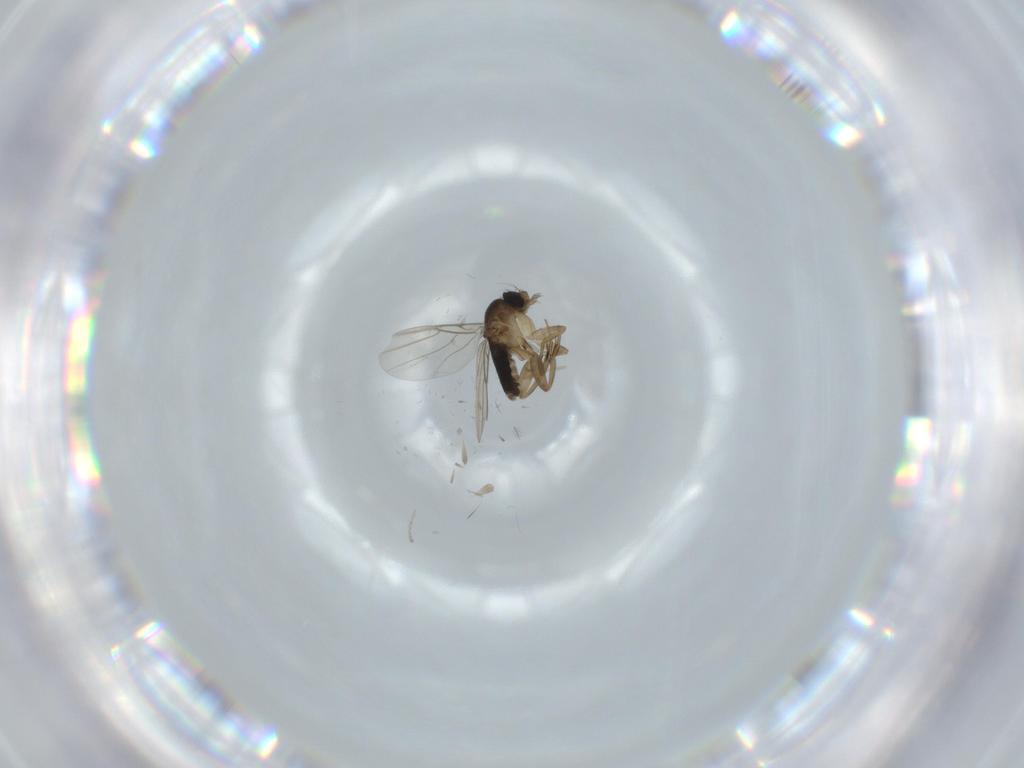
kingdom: Animalia
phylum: Arthropoda
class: Insecta
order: Diptera
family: Phoridae
